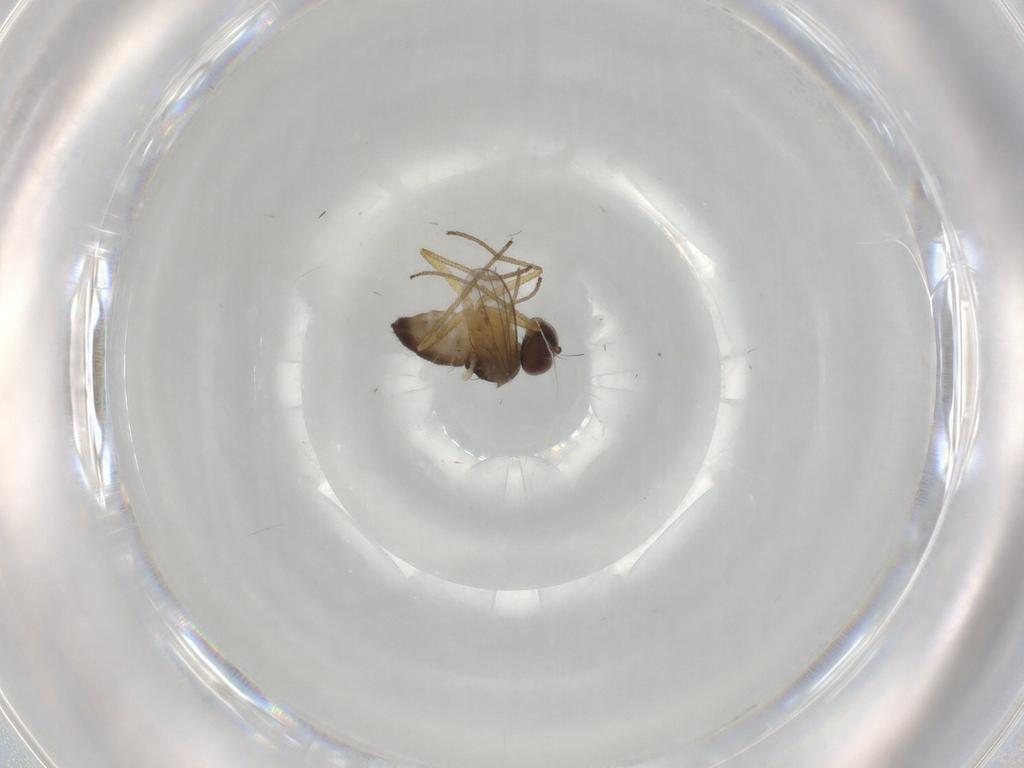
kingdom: Animalia
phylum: Arthropoda
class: Insecta
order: Diptera
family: Dolichopodidae
